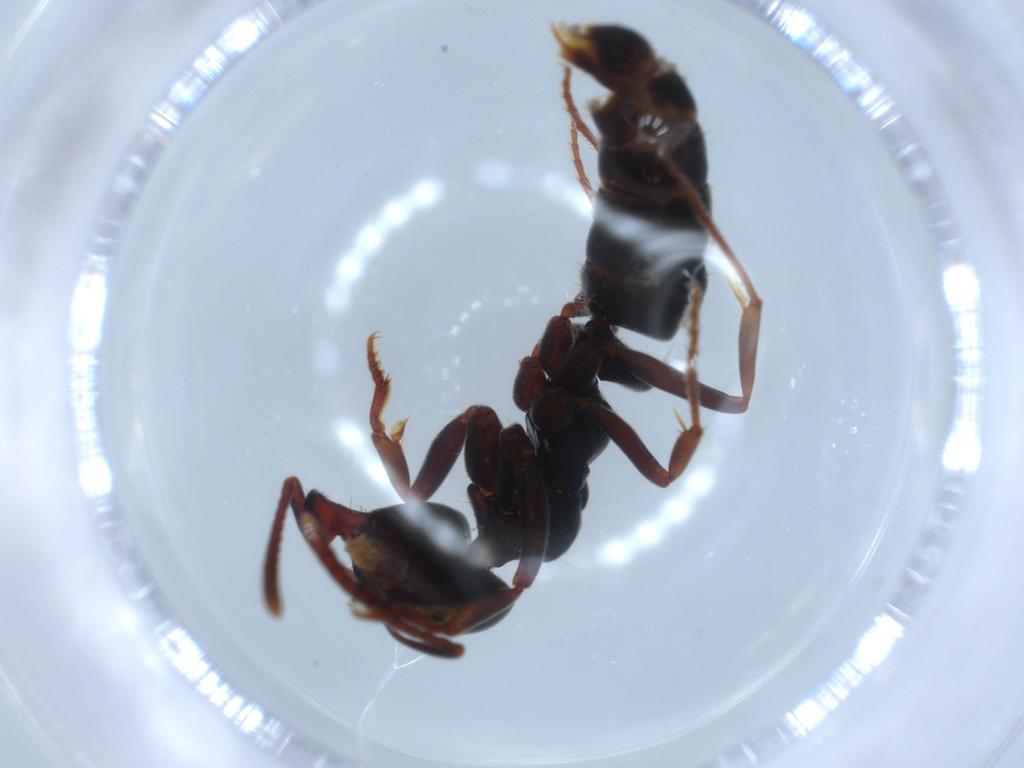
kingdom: Animalia
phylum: Arthropoda
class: Insecta
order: Hymenoptera
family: Formicidae
